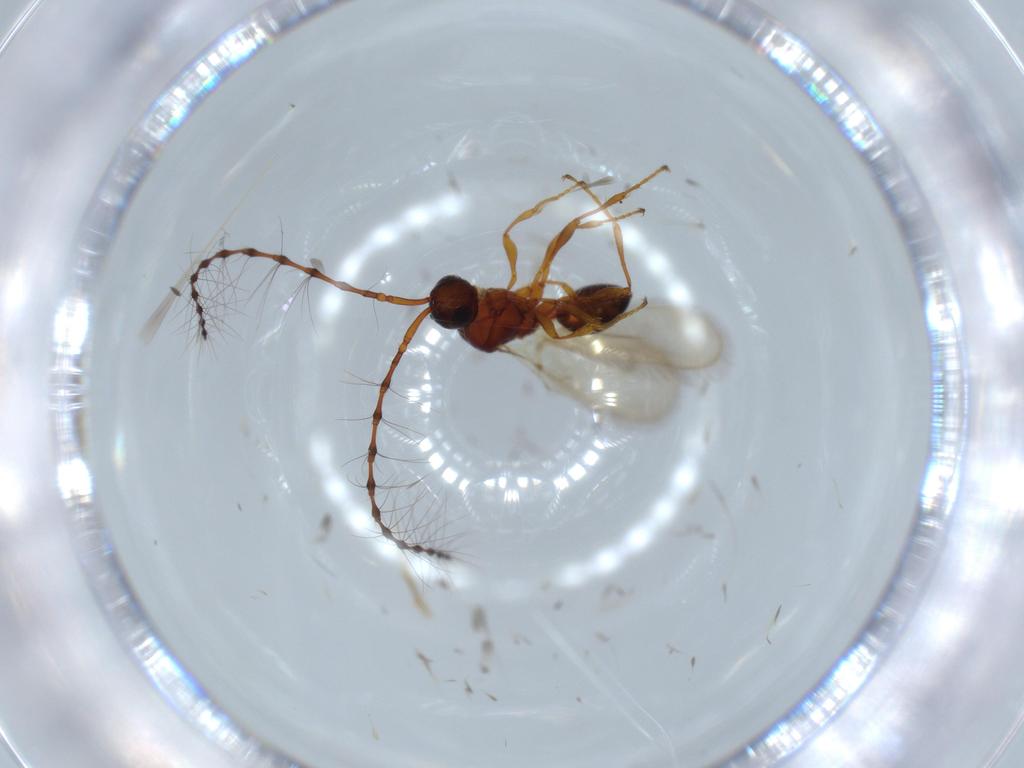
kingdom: Animalia
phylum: Arthropoda
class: Insecta
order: Hymenoptera
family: Diapriidae
